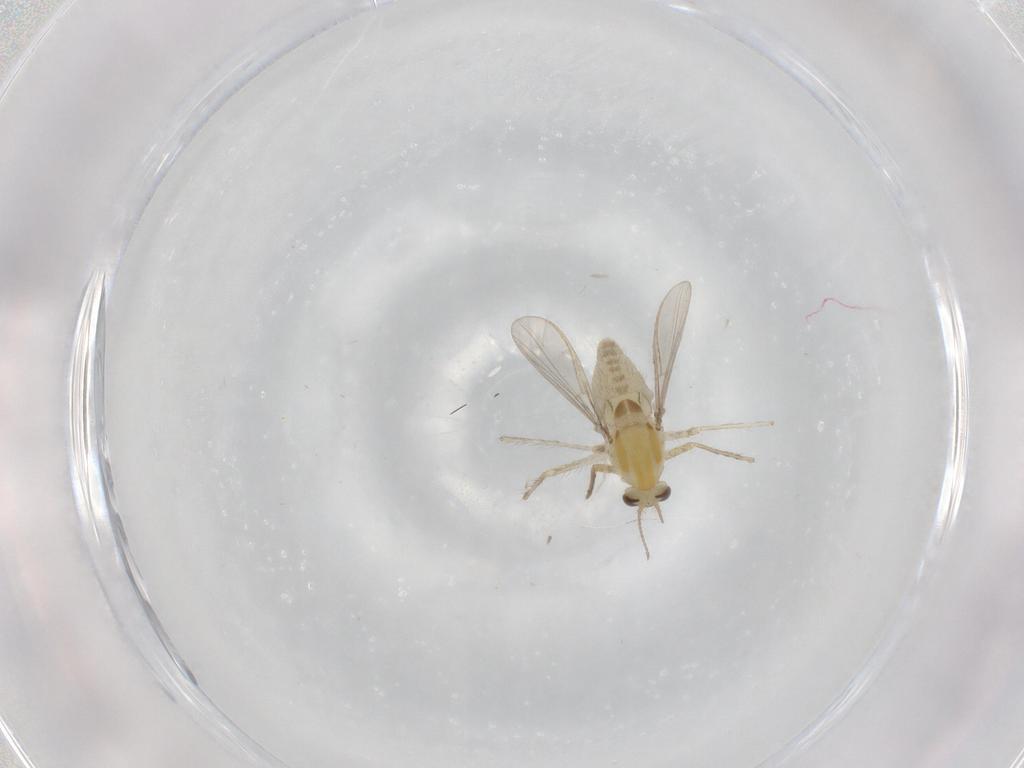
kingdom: Animalia
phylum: Arthropoda
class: Insecta
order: Diptera
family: Chironomidae
